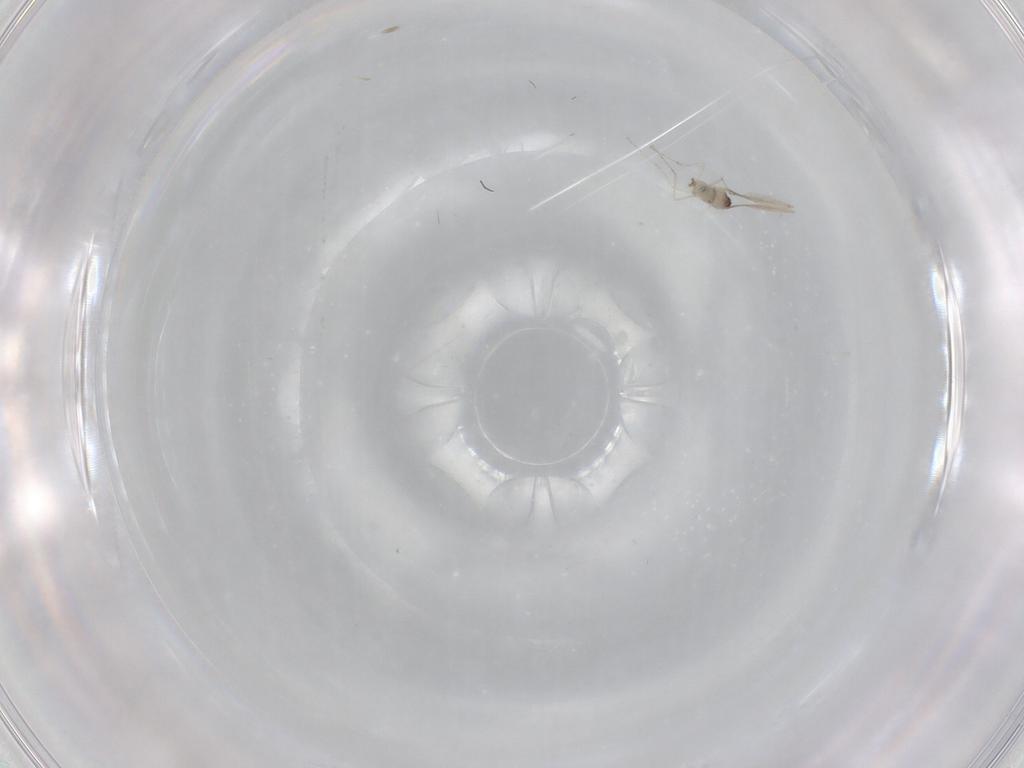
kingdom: Animalia
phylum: Arthropoda
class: Insecta
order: Diptera
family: Cecidomyiidae
